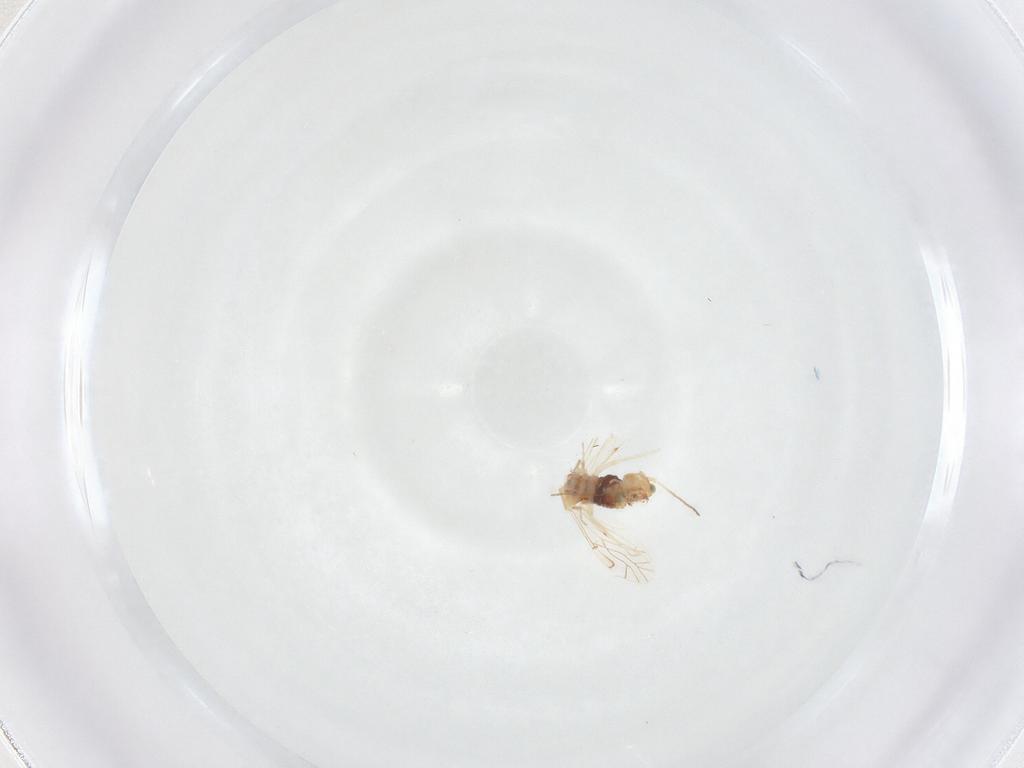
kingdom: Animalia
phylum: Arthropoda
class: Insecta
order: Psocodea
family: Lachesillidae
